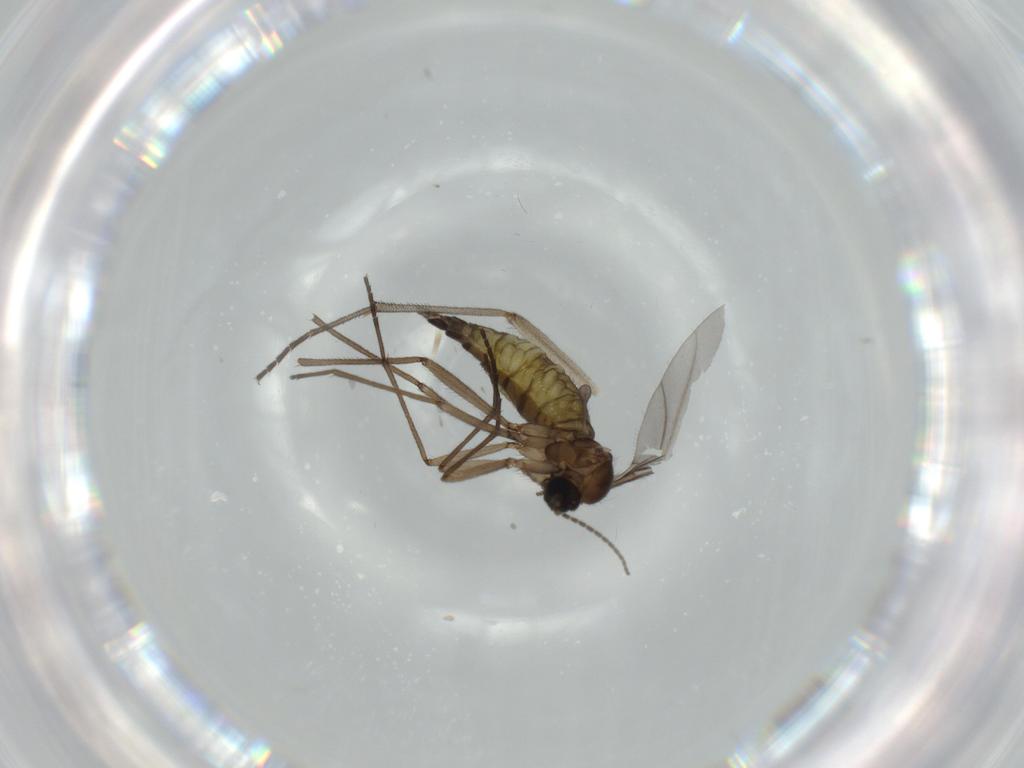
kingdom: Animalia
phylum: Arthropoda
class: Insecta
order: Diptera
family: Sciaridae
